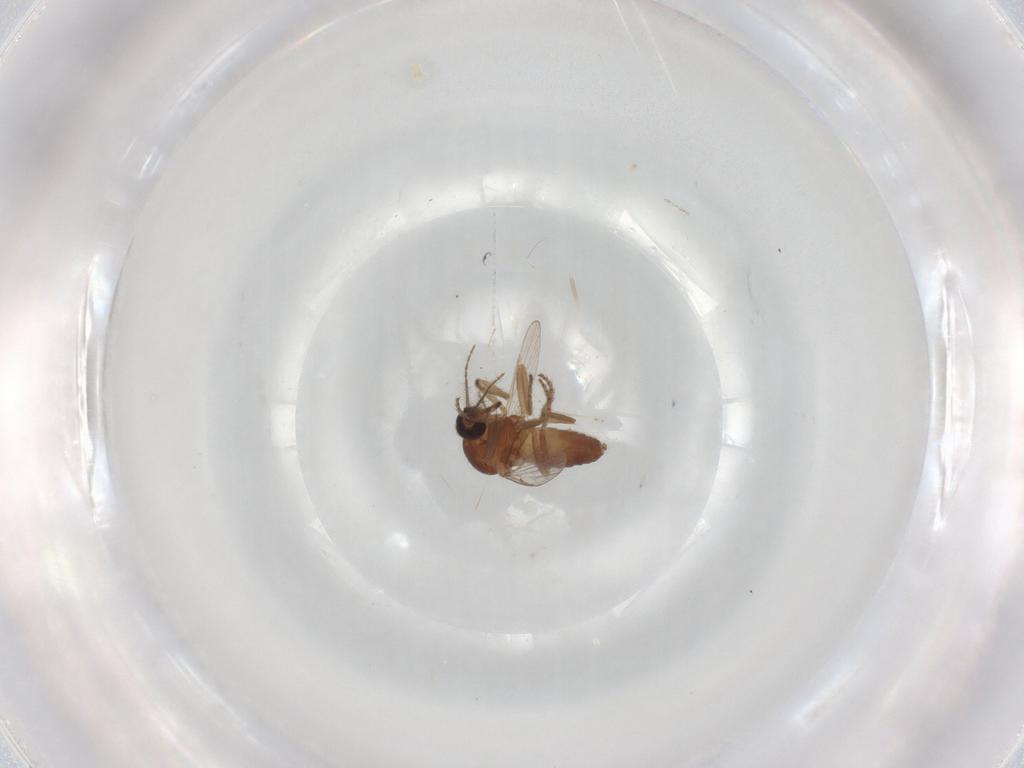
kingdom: Animalia
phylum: Arthropoda
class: Insecta
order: Diptera
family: Ceratopogonidae
